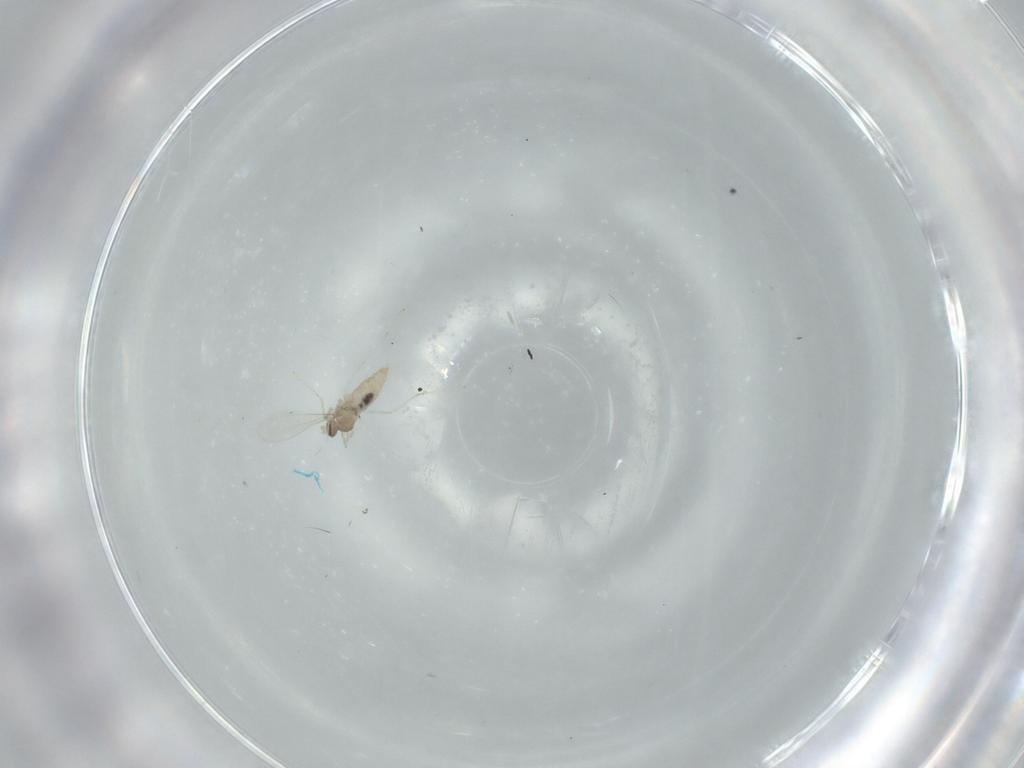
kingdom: Animalia
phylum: Arthropoda
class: Insecta
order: Diptera
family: Cecidomyiidae
